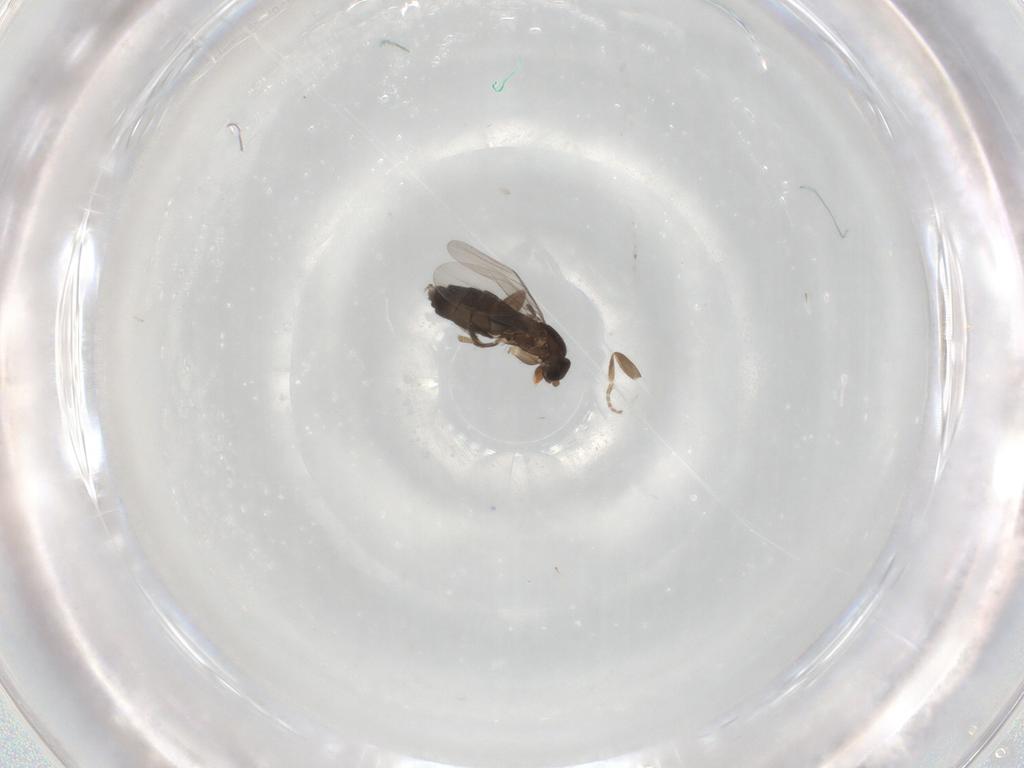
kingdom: Animalia
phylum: Arthropoda
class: Insecta
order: Diptera
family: Phoridae
